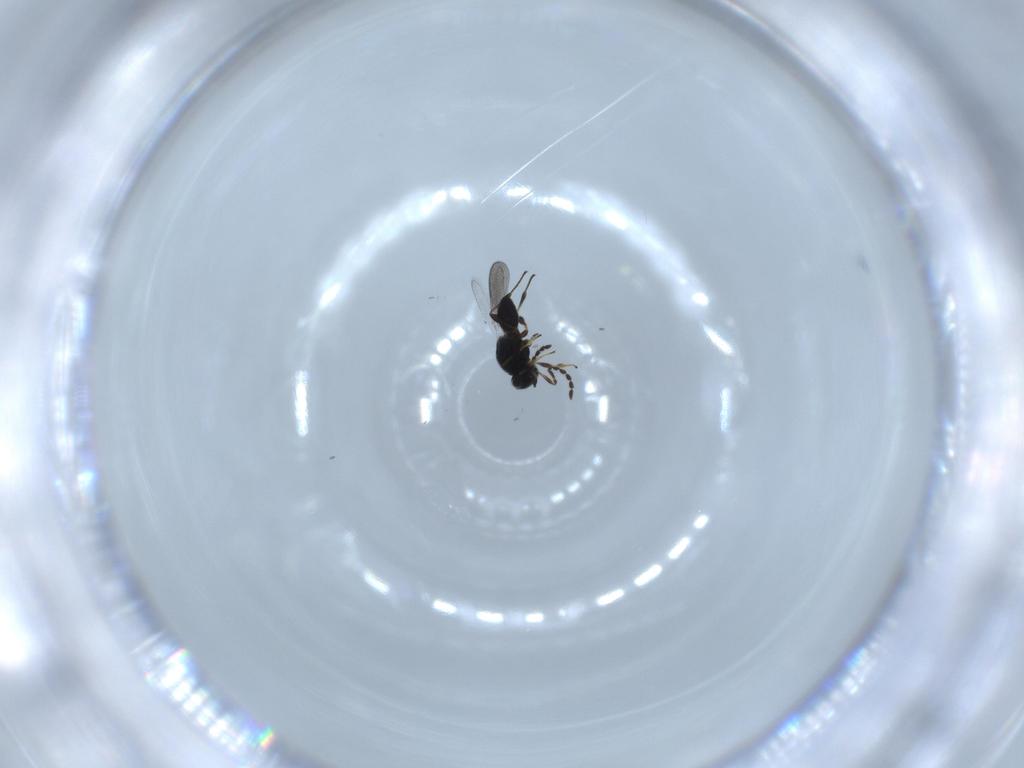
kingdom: Animalia
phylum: Arthropoda
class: Insecta
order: Hymenoptera
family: Platygastridae
